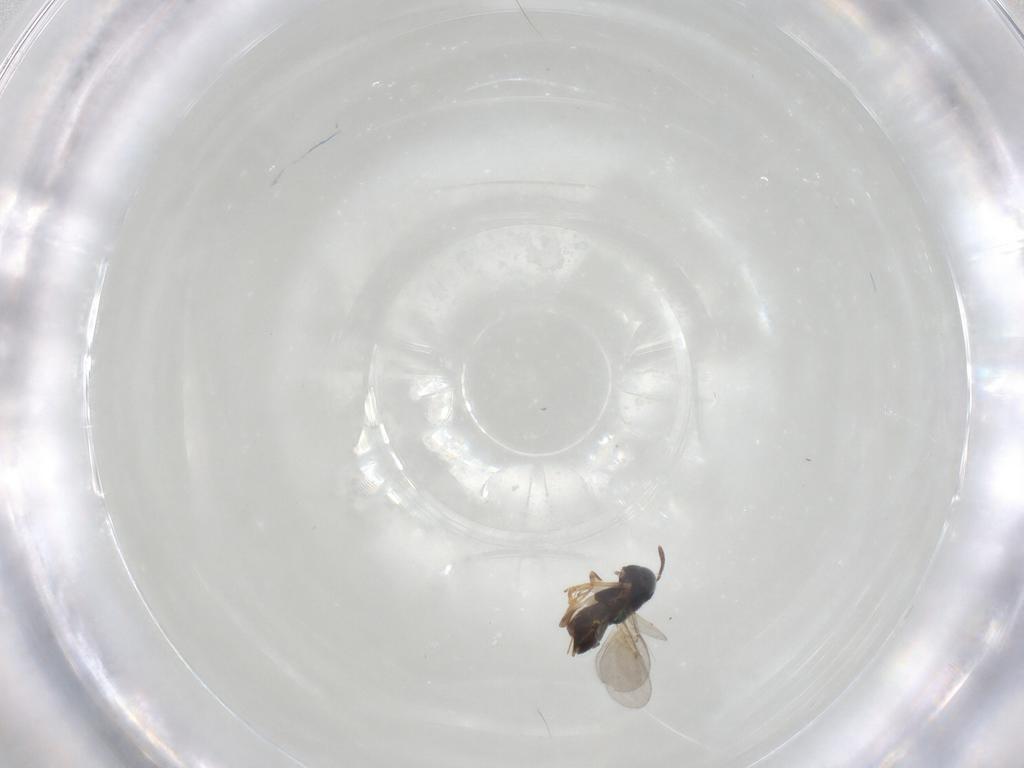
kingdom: Animalia
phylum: Arthropoda
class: Insecta
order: Hymenoptera
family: Encyrtidae
